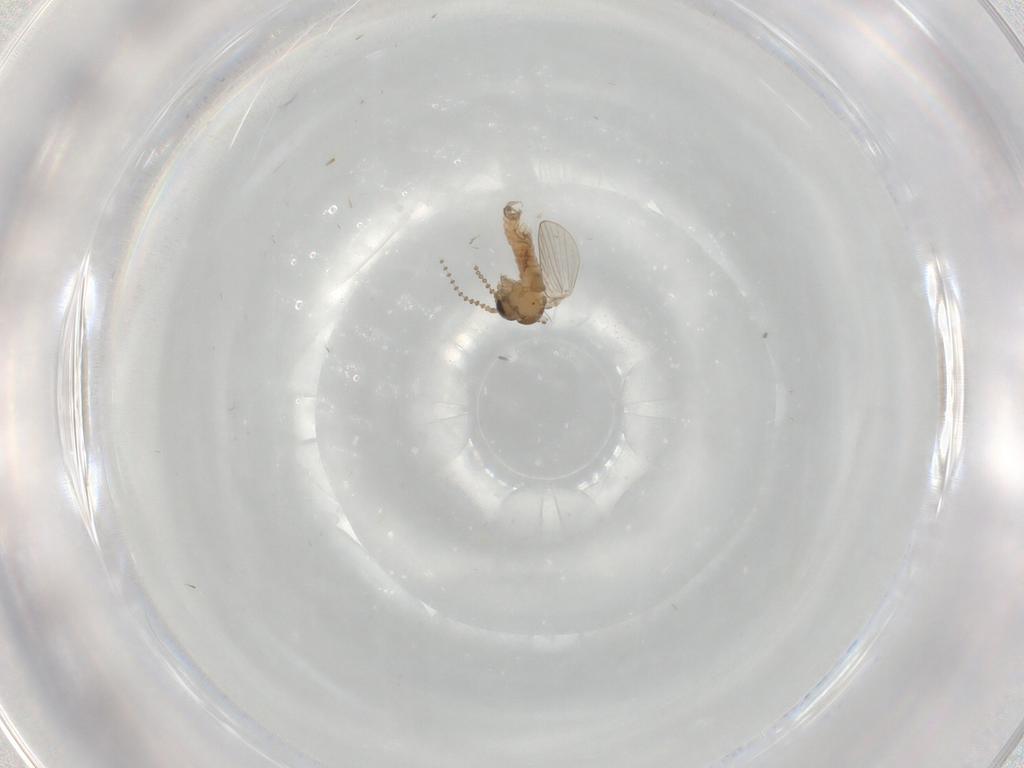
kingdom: Animalia
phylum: Arthropoda
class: Insecta
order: Diptera
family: Psychodidae
